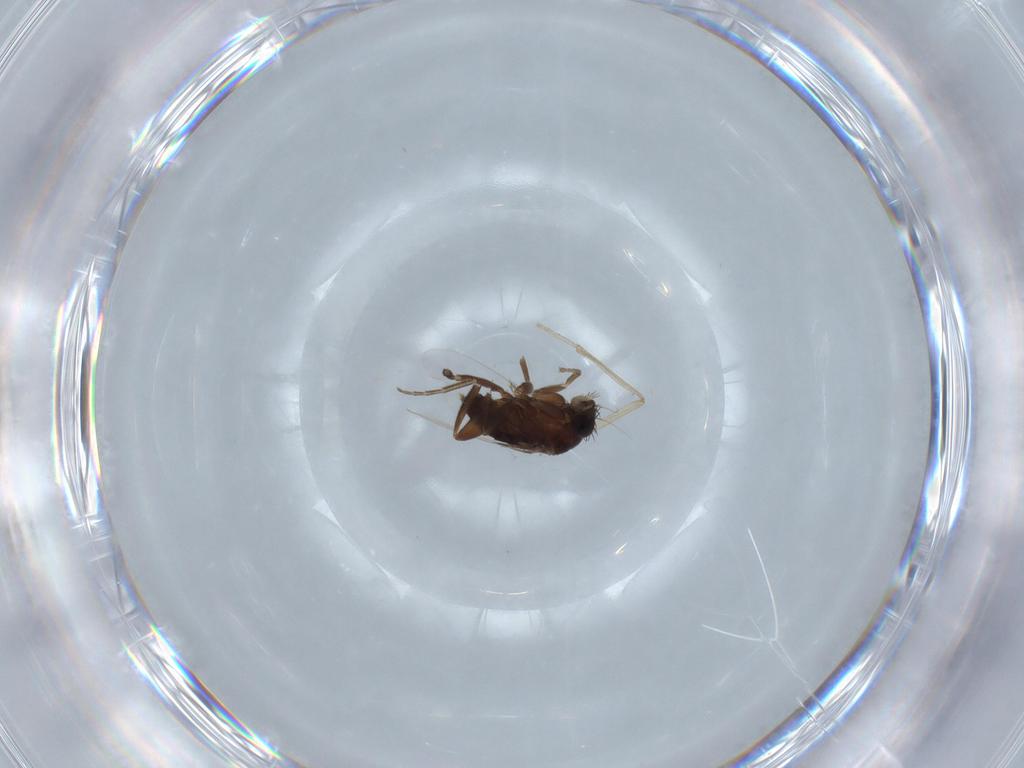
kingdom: Animalia
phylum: Arthropoda
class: Insecta
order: Diptera
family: Phoridae
